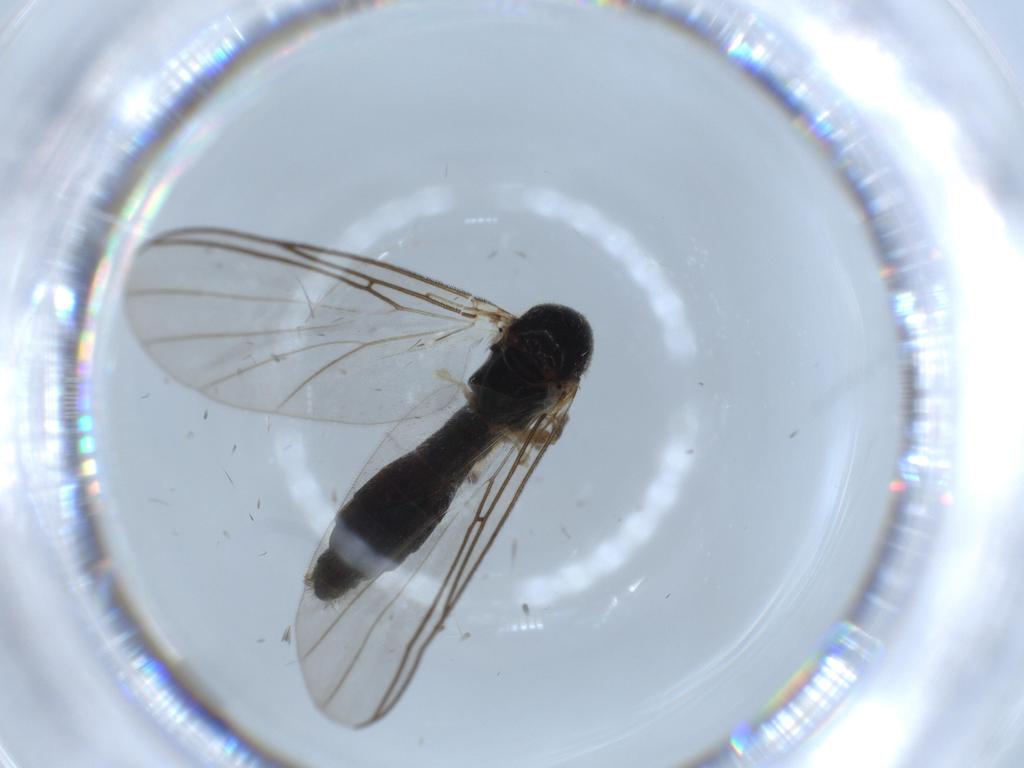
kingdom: Animalia
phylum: Arthropoda
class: Insecta
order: Diptera
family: Mycetophilidae
